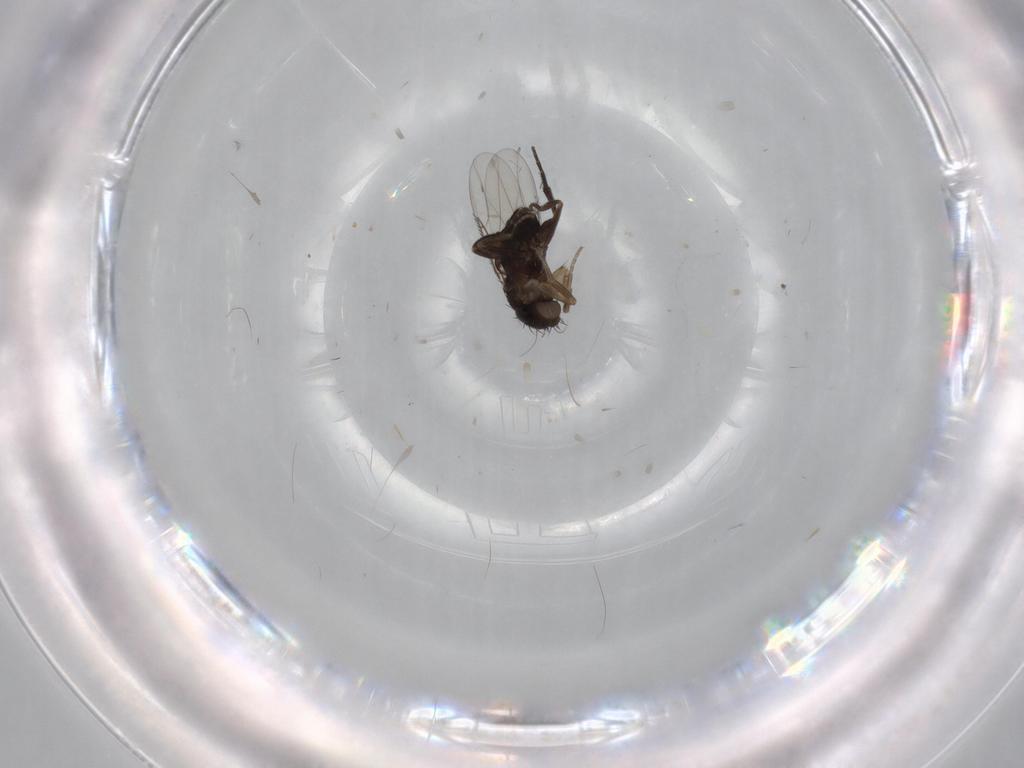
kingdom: Animalia
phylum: Arthropoda
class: Insecta
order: Diptera
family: Phoridae
